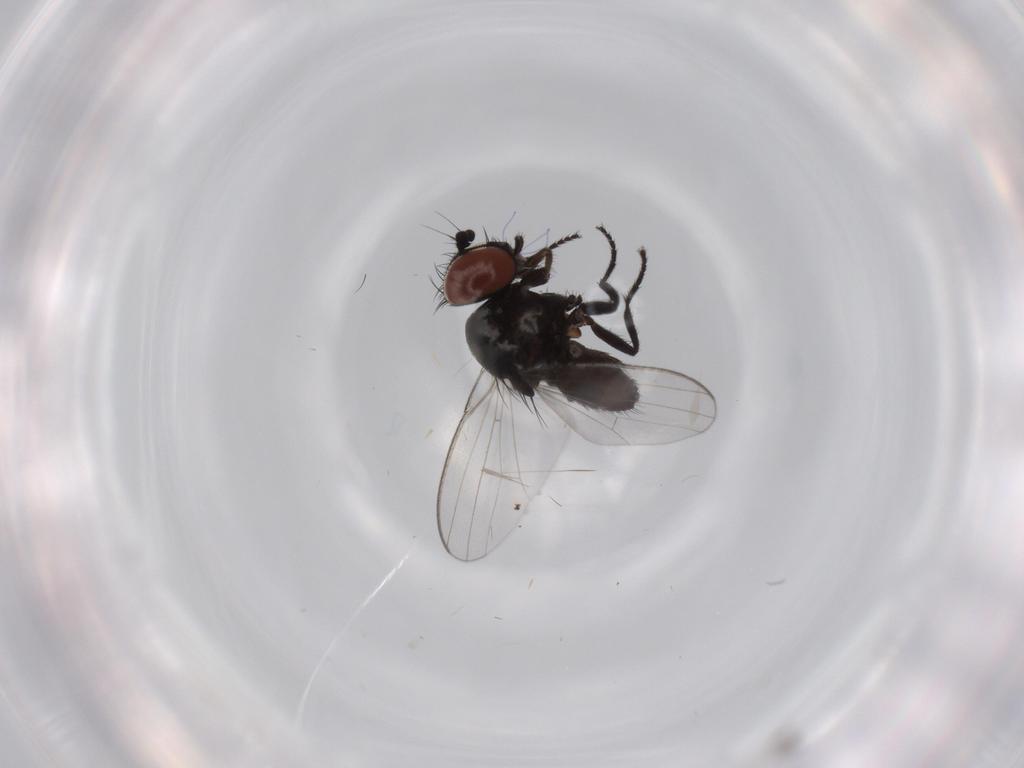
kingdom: Animalia
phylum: Arthropoda
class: Insecta
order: Diptera
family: Milichiidae
